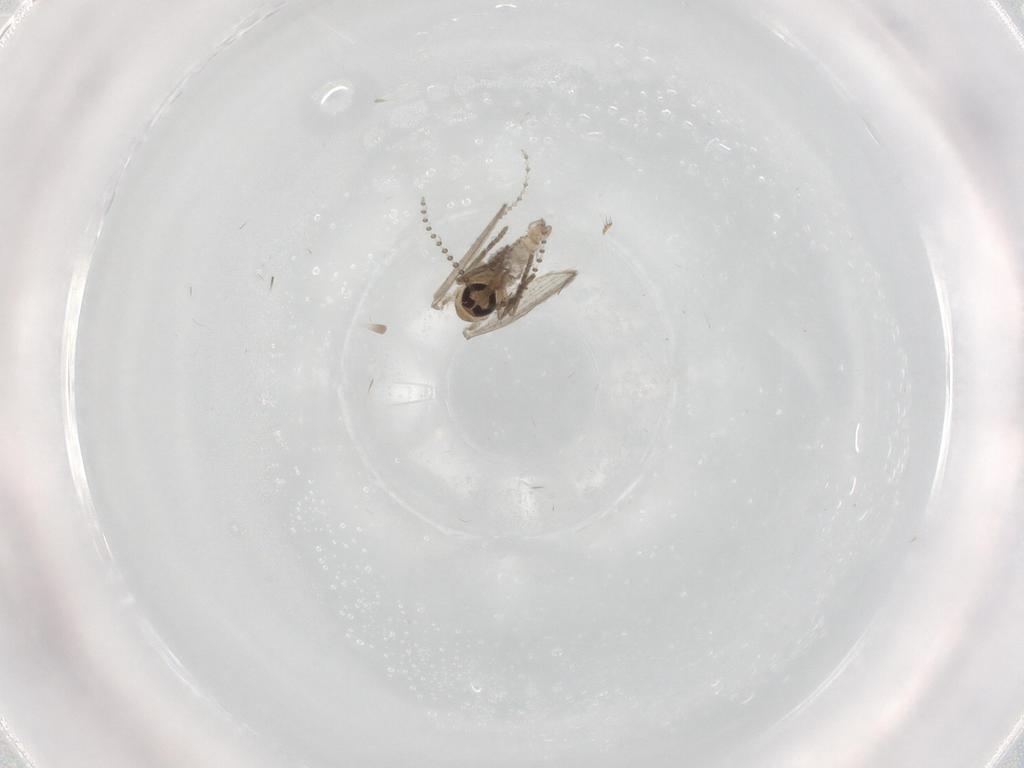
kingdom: Animalia
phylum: Arthropoda
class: Insecta
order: Diptera
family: Psychodidae
